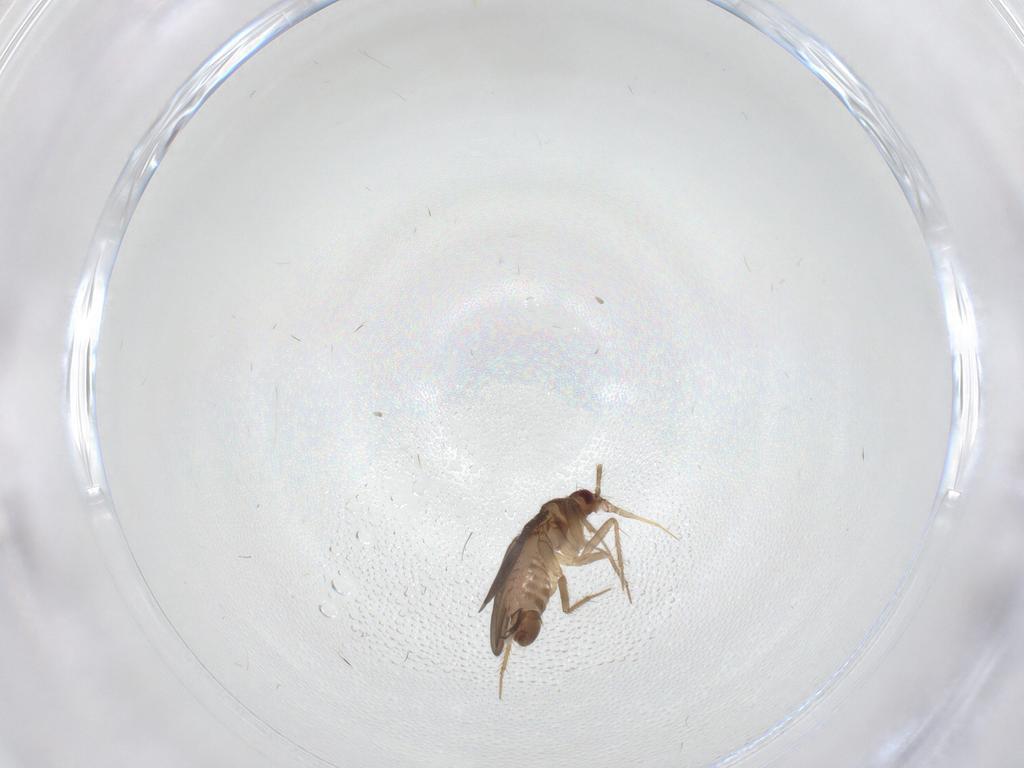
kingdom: Animalia
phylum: Arthropoda
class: Insecta
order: Hemiptera
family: Ceratocombidae
